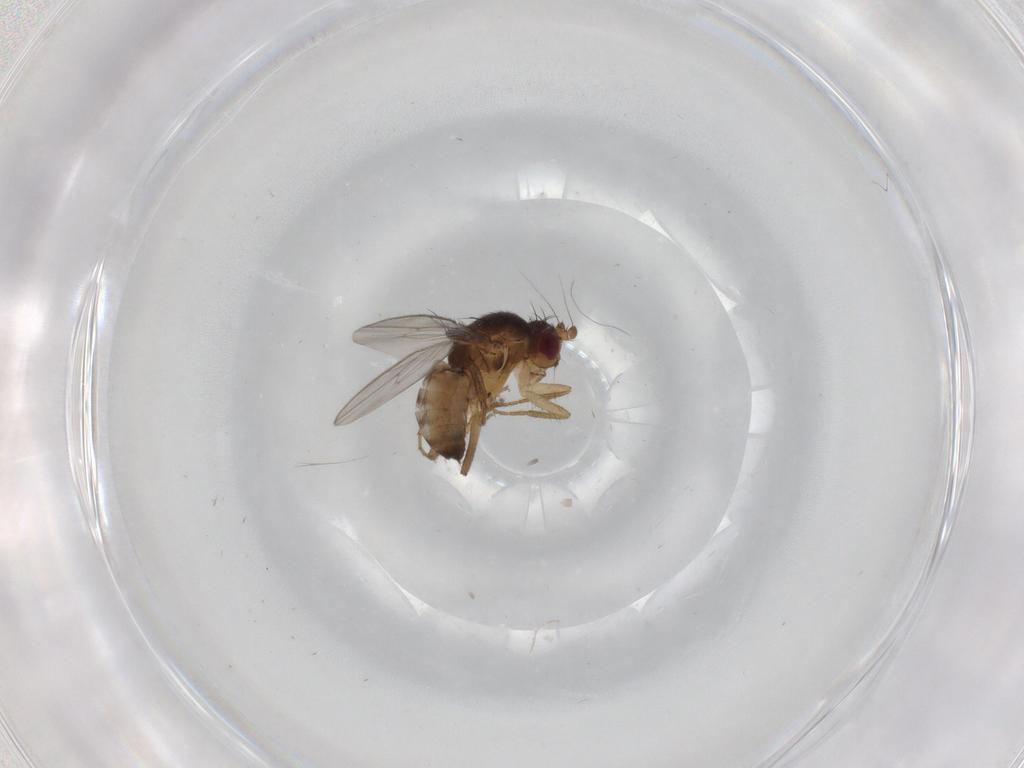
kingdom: Animalia
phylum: Arthropoda
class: Insecta
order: Diptera
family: Sphaeroceridae
